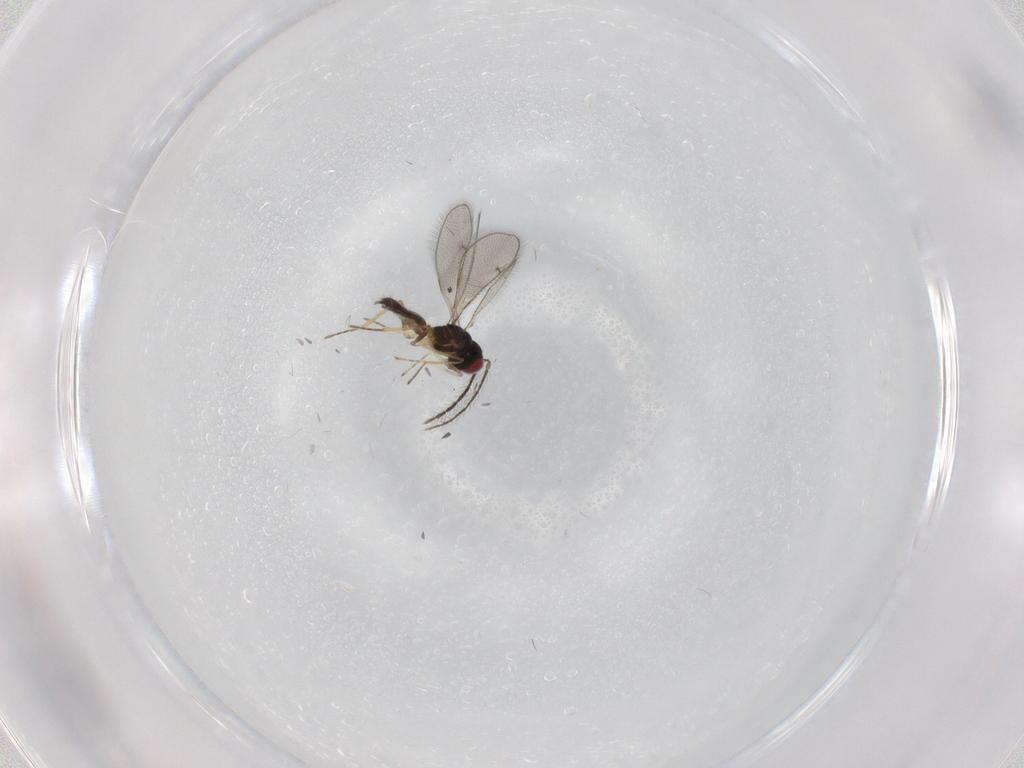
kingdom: Animalia
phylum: Arthropoda
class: Insecta
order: Hymenoptera
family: Eulophidae
